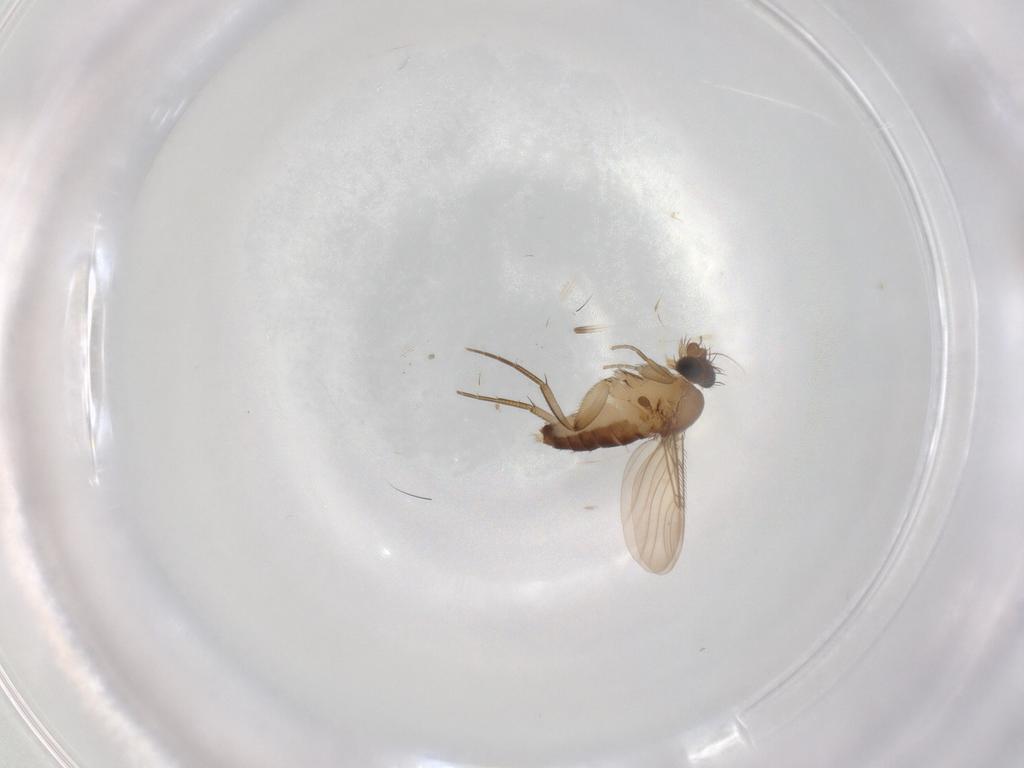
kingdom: Animalia
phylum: Arthropoda
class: Insecta
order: Diptera
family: Phoridae
